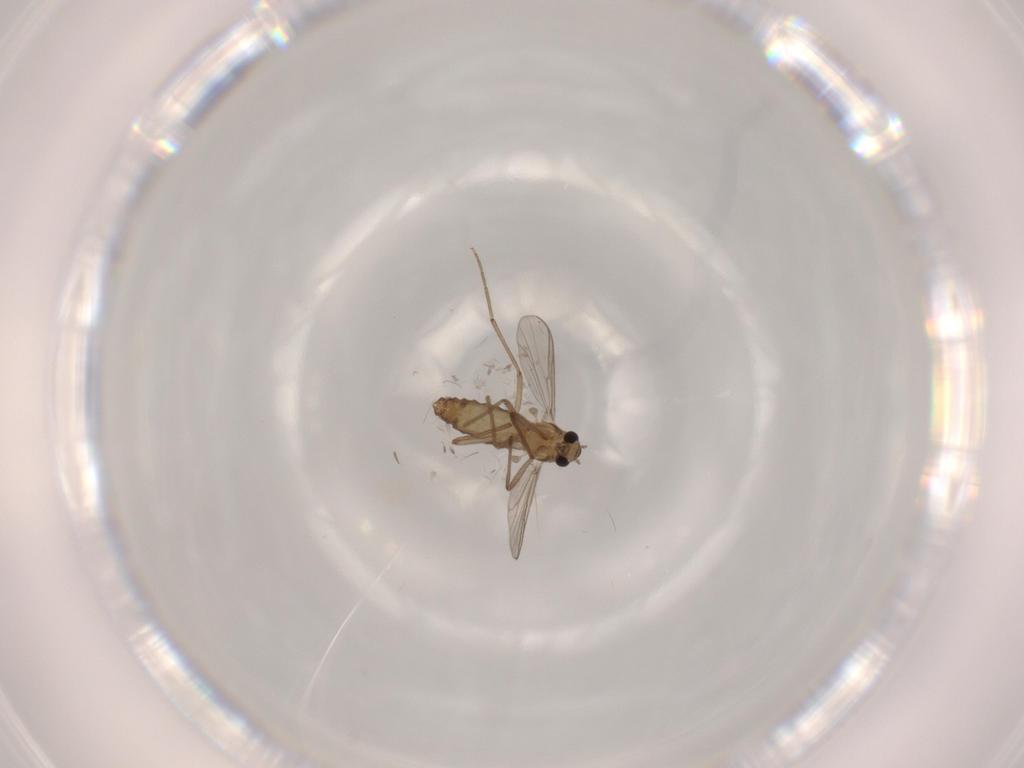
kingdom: Animalia
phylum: Arthropoda
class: Insecta
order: Diptera
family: Chironomidae
